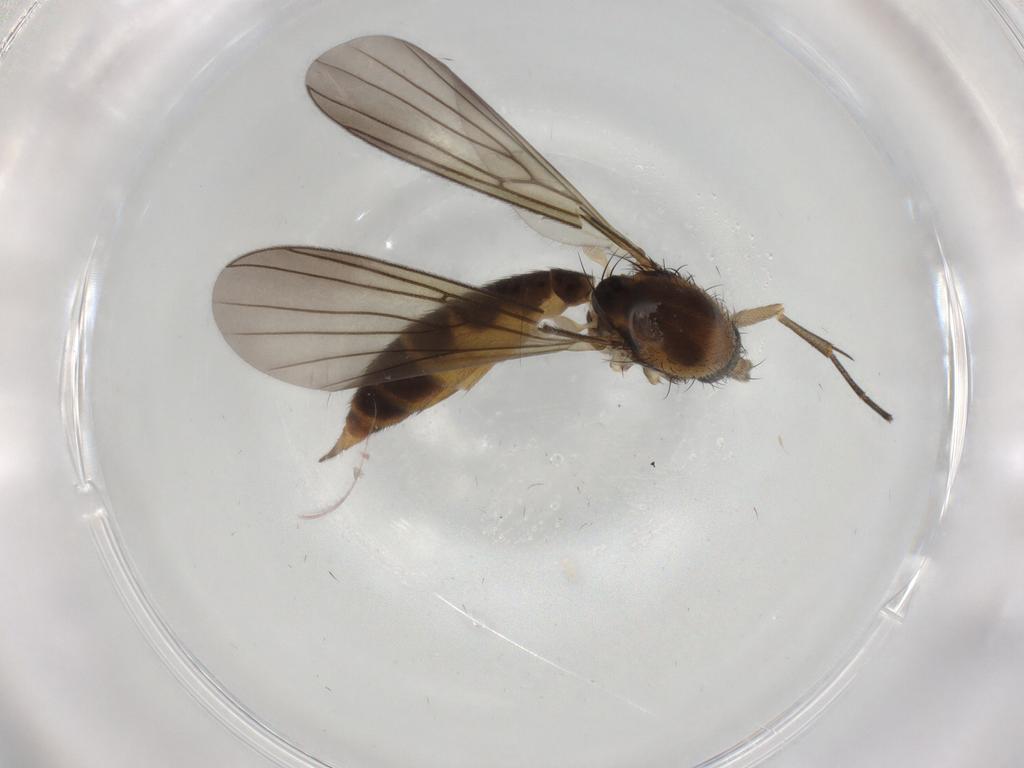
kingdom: Animalia
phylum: Arthropoda
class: Insecta
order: Diptera
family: Mycetophilidae
